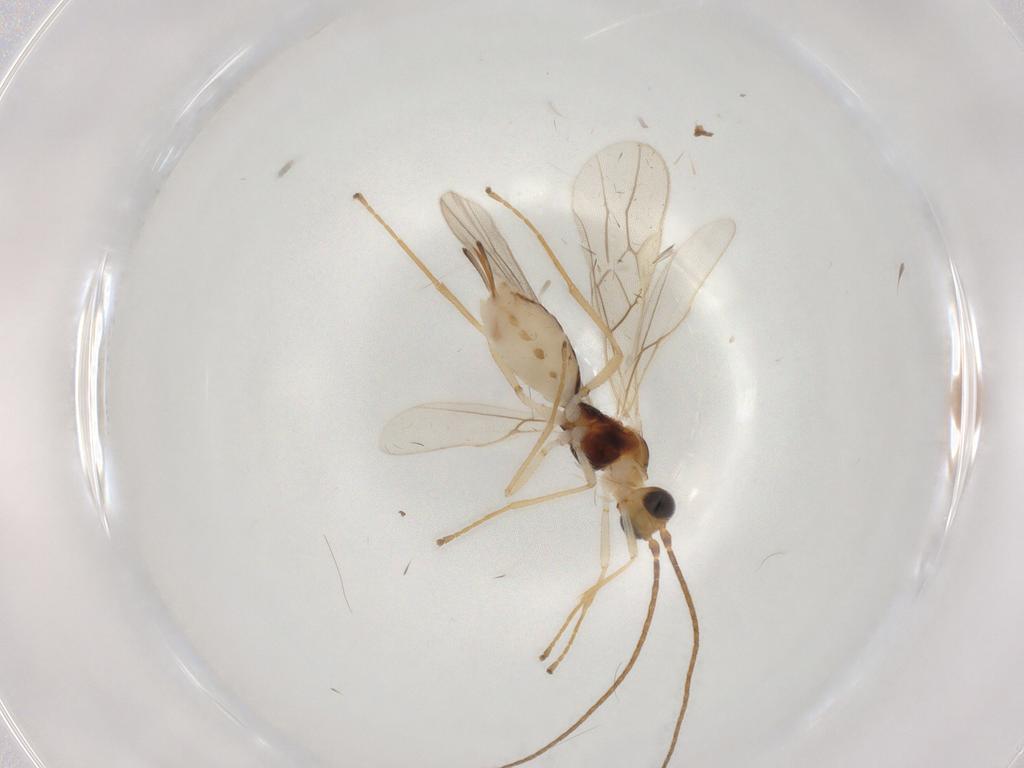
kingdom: Animalia
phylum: Arthropoda
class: Insecta
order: Hymenoptera
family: Braconidae
